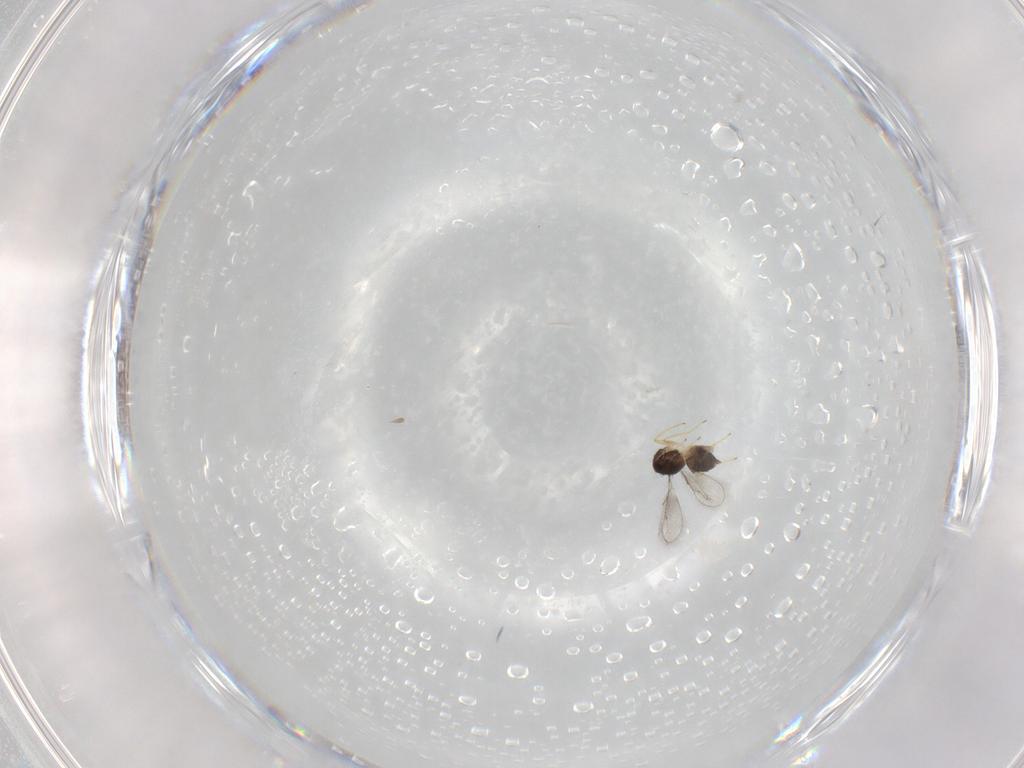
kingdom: Animalia
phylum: Arthropoda
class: Insecta
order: Hymenoptera
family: Eulophidae
